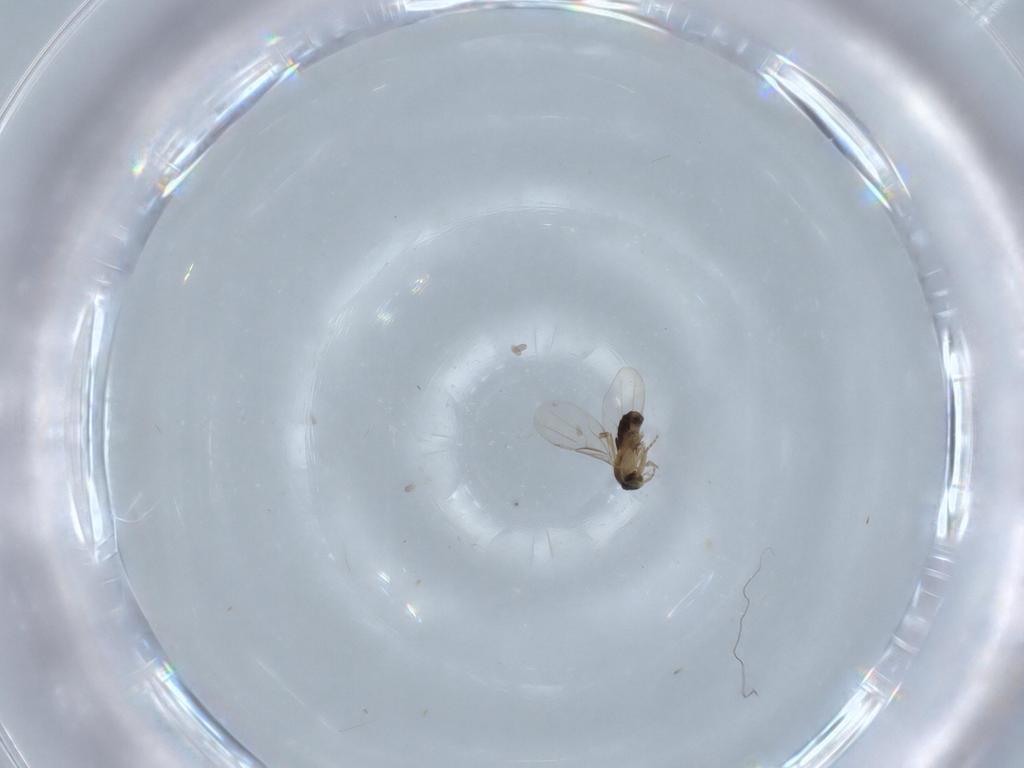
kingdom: Animalia
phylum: Arthropoda
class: Insecta
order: Diptera
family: Phoridae
